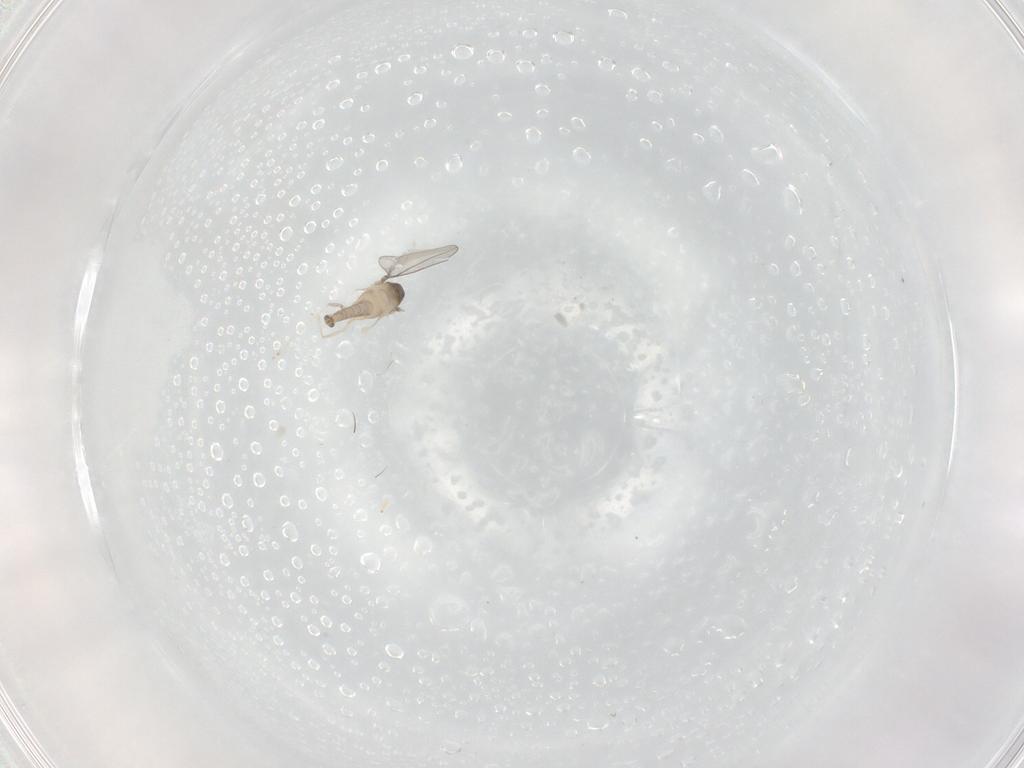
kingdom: Animalia
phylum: Arthropoda
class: Insecta
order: Diptera
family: Cecidomyiidae
